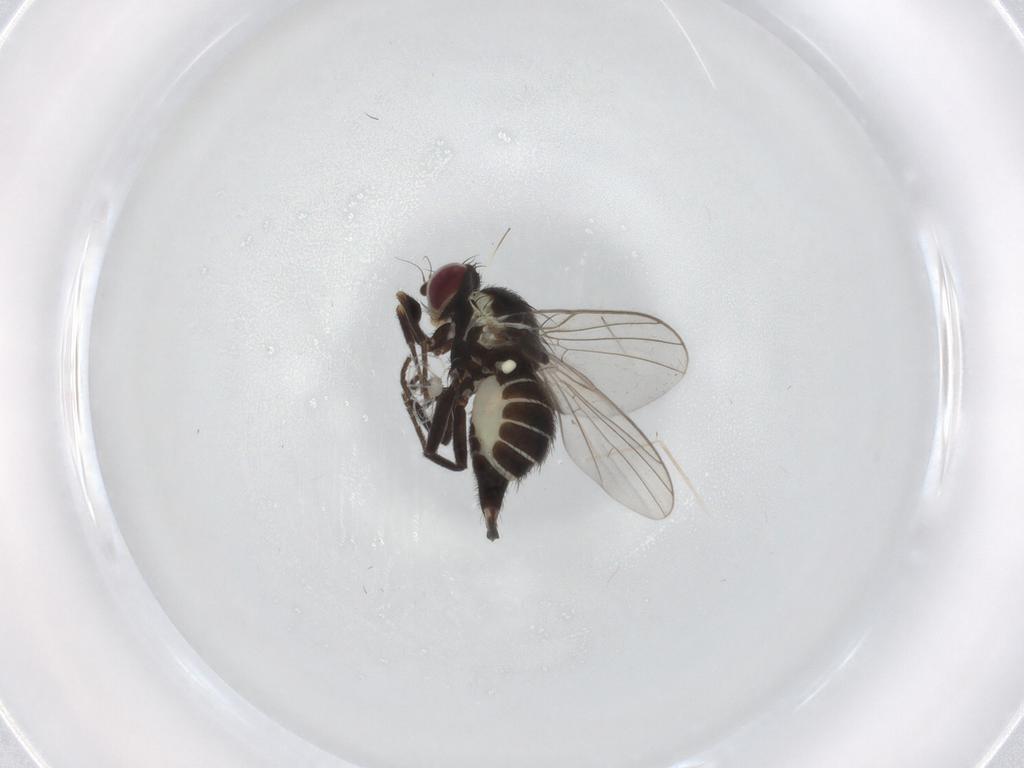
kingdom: Animalia
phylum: Arthropoda
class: Insecta
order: Diptera
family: Agromyzidae
